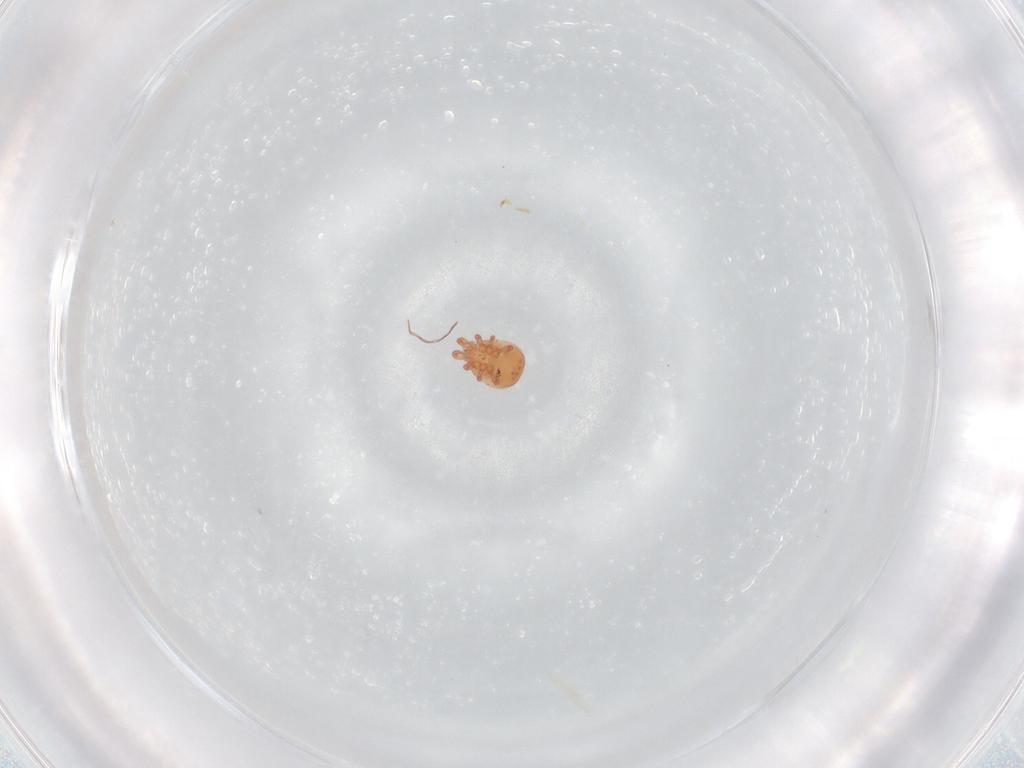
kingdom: Animalia
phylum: Arthropoda
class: Arachnida
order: Mesostigmata
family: Zerconidae
